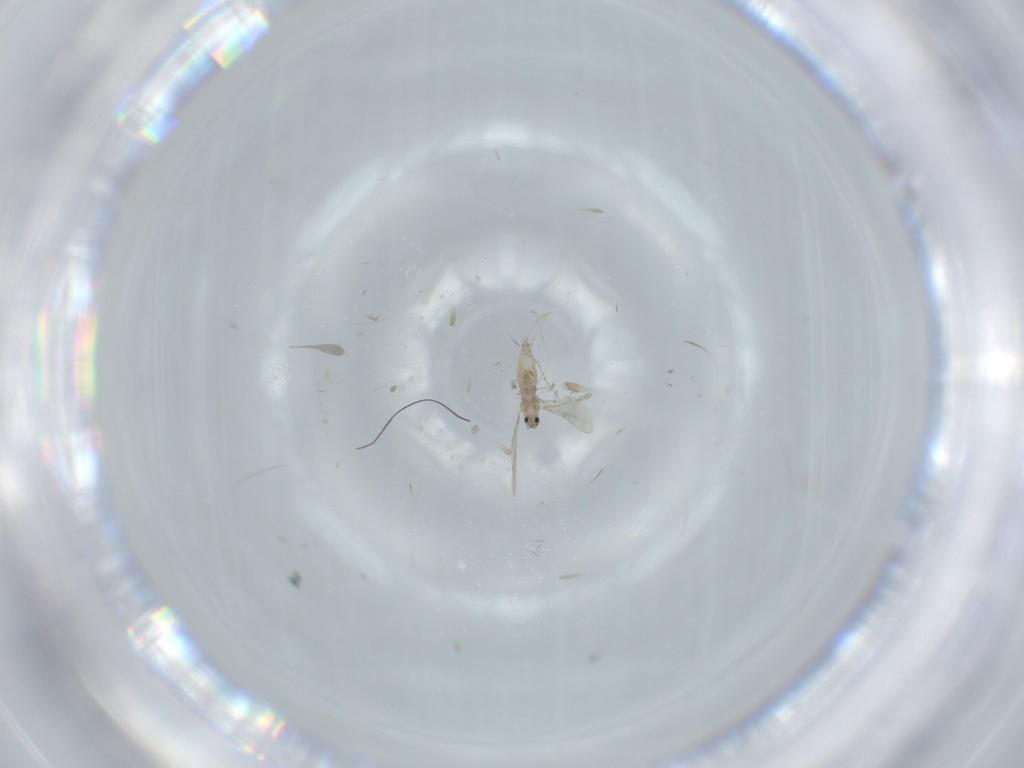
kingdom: Animalia
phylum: Arthropoda
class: Insecta
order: Diptera
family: Cecidomyiidae
